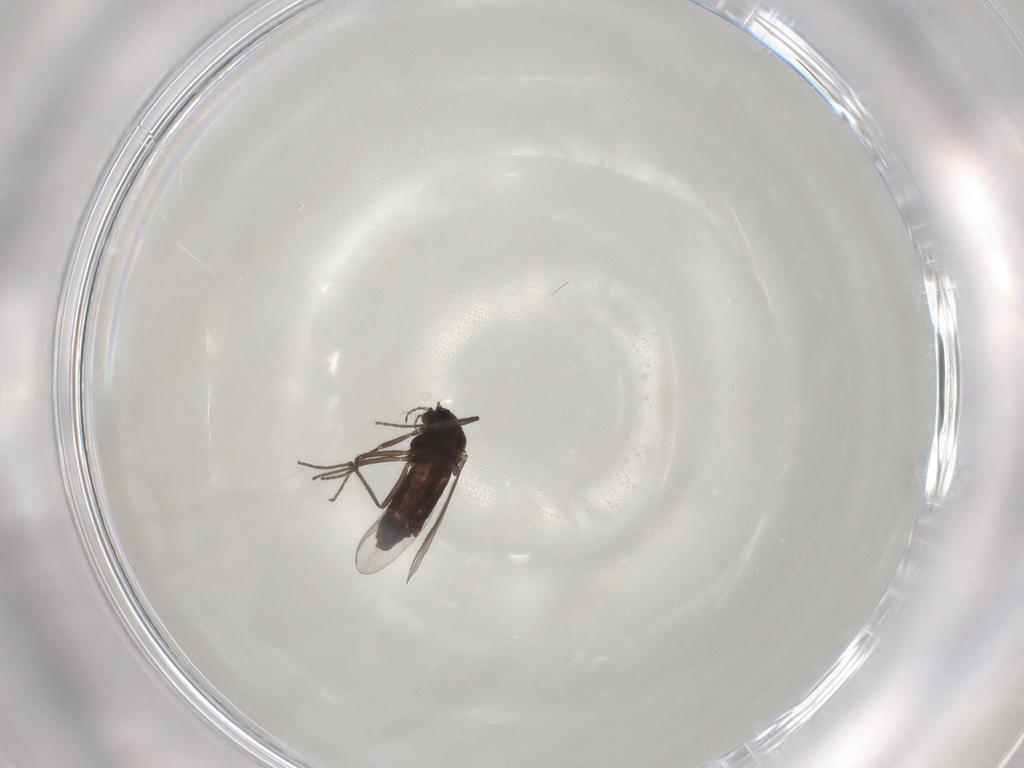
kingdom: Animalia
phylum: Arthropoda
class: Insecta
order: Diptera
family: Chironomidae
